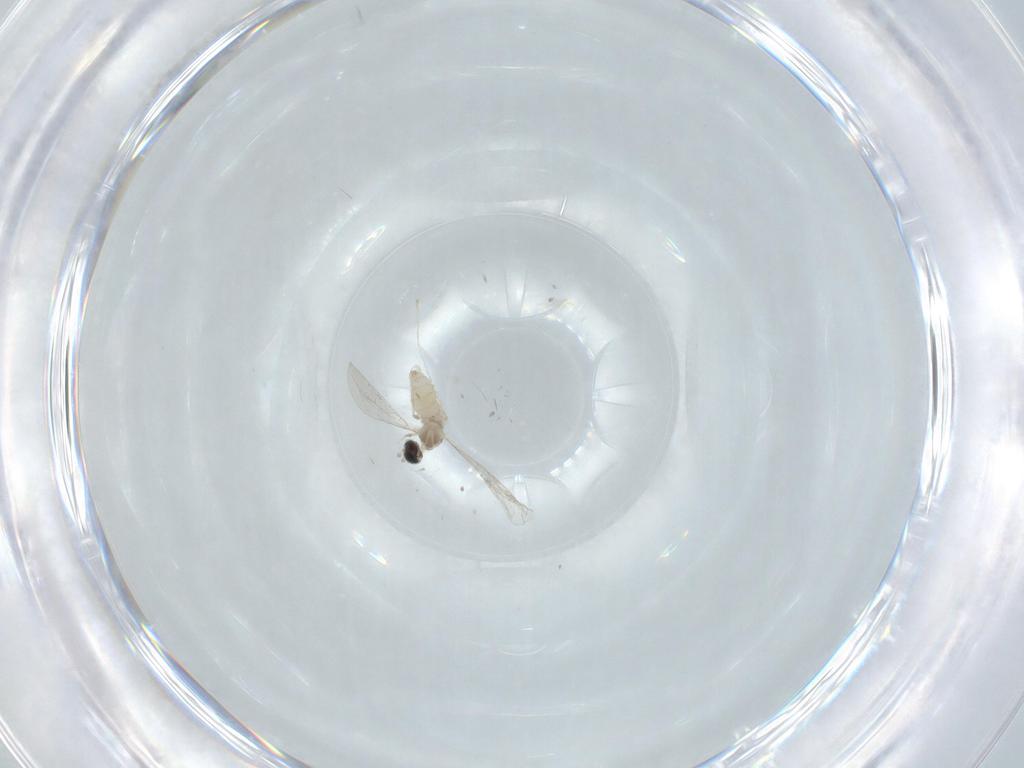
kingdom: Animalia
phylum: Arthropoda
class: Insecta
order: Diptera
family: Cecidomyiidae
